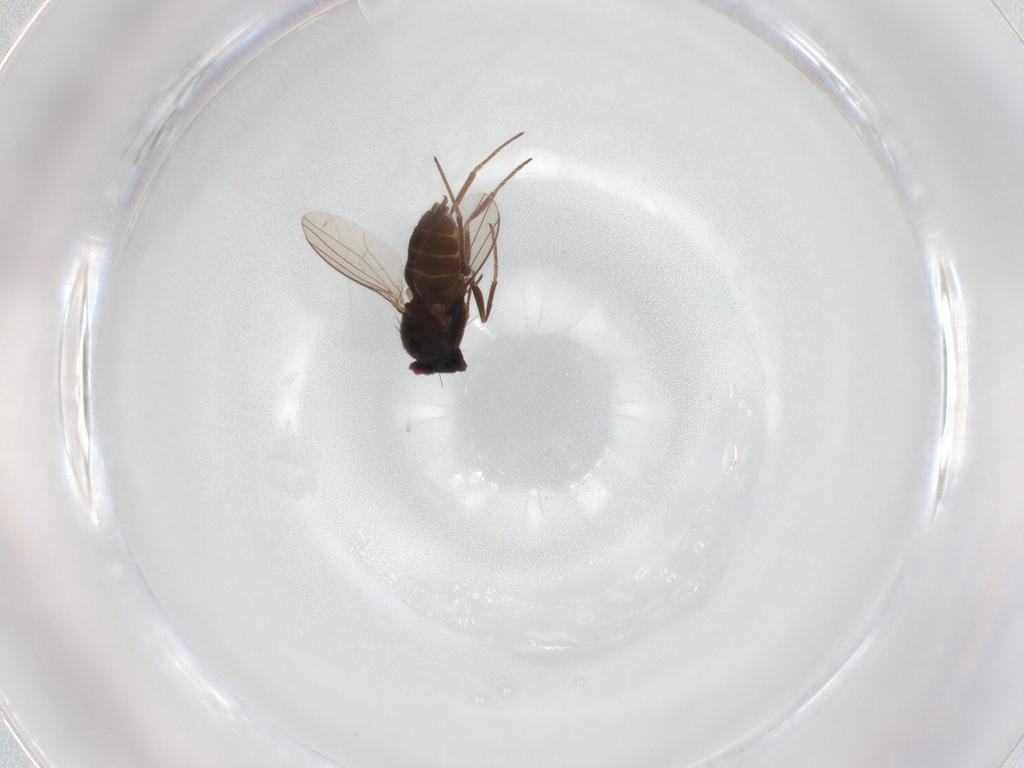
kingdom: Animalia
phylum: Arthropoda
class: Insecta
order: Diptera
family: Dolichopodidae
